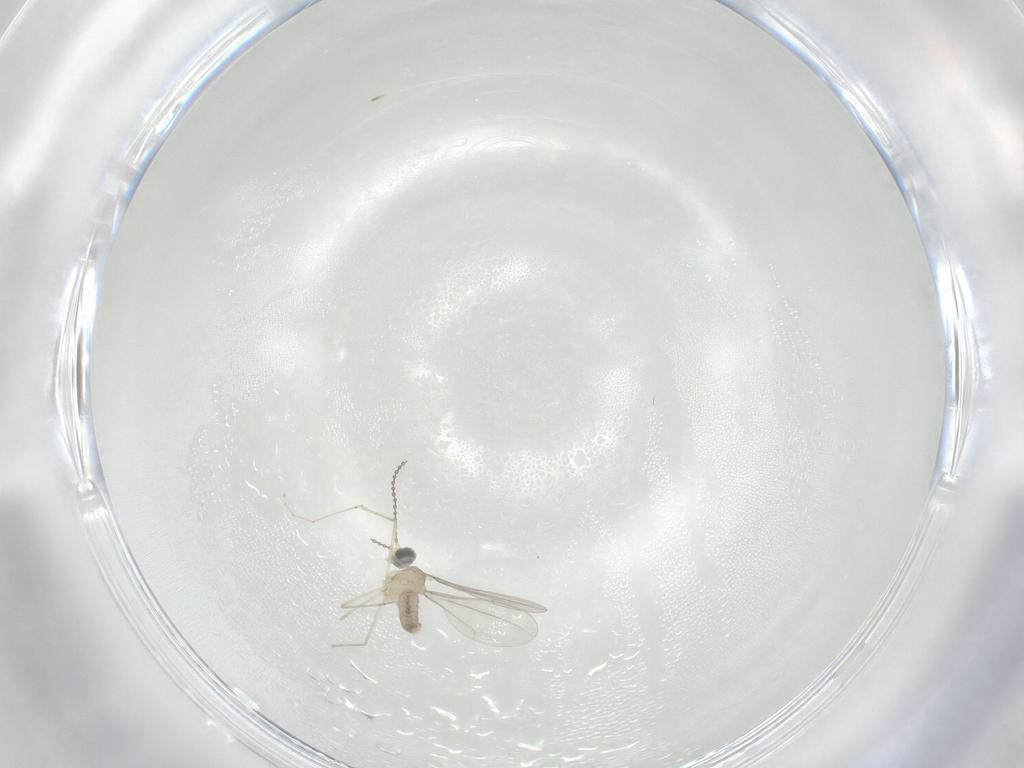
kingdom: Animalia
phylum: Arthropoda
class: Insecta
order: Diptera
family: Cecidomyiidae
